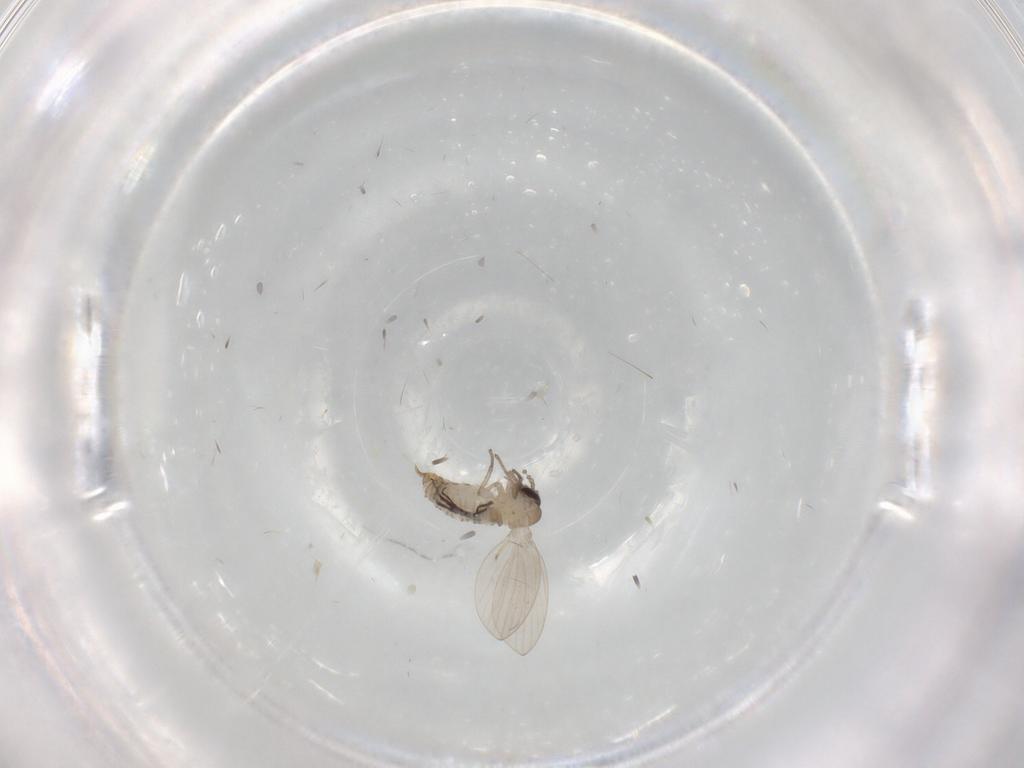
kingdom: Animalia
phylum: Arthropoda
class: Insecta
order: Diptera
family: Psychodidae
